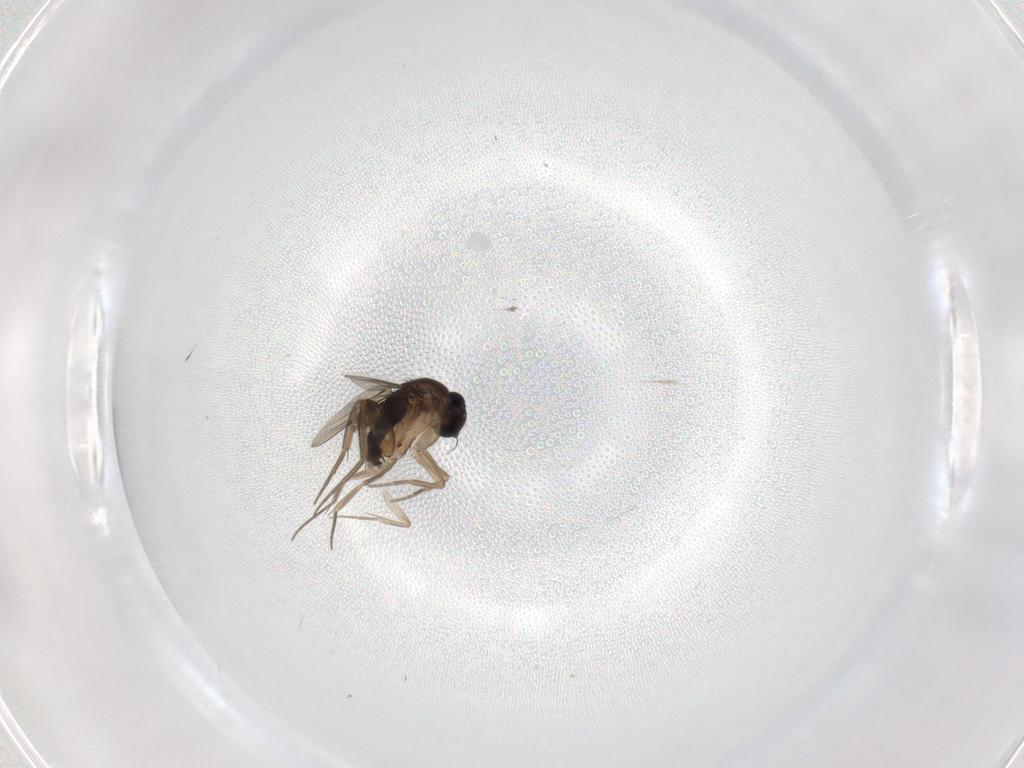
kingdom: Animalia
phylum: Arthropoda
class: Insecta
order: Diptera
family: Phoridae
